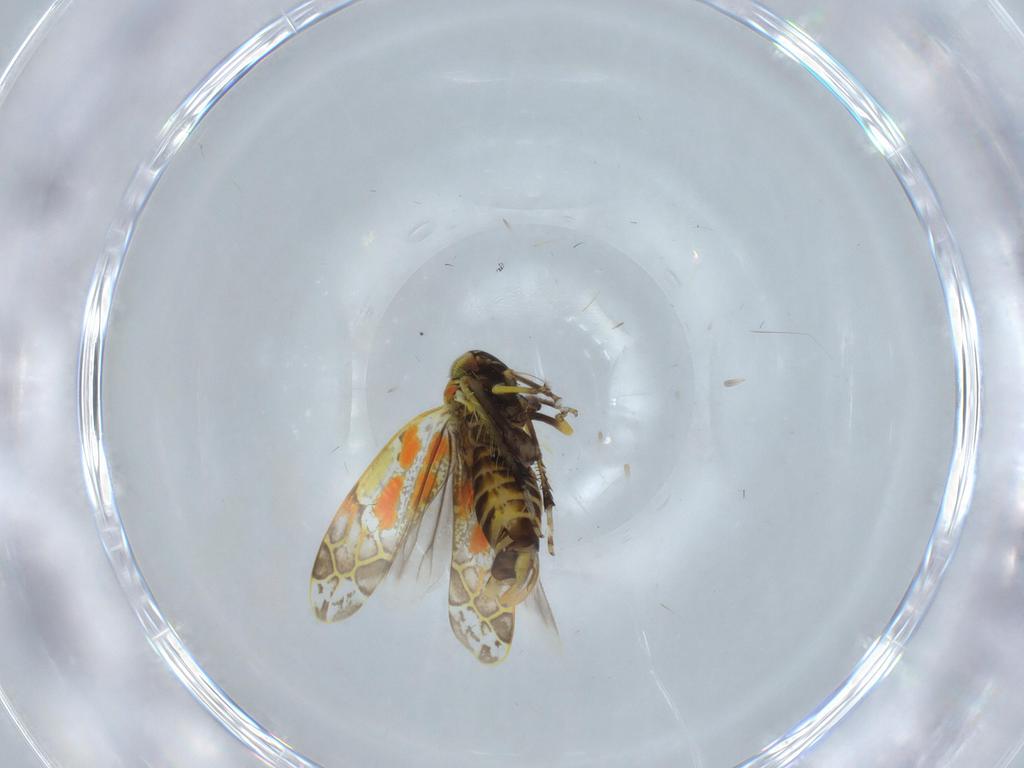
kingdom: Animalia
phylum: Arthropoda
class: Insecta
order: Hemiptera
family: Cicadellidae
